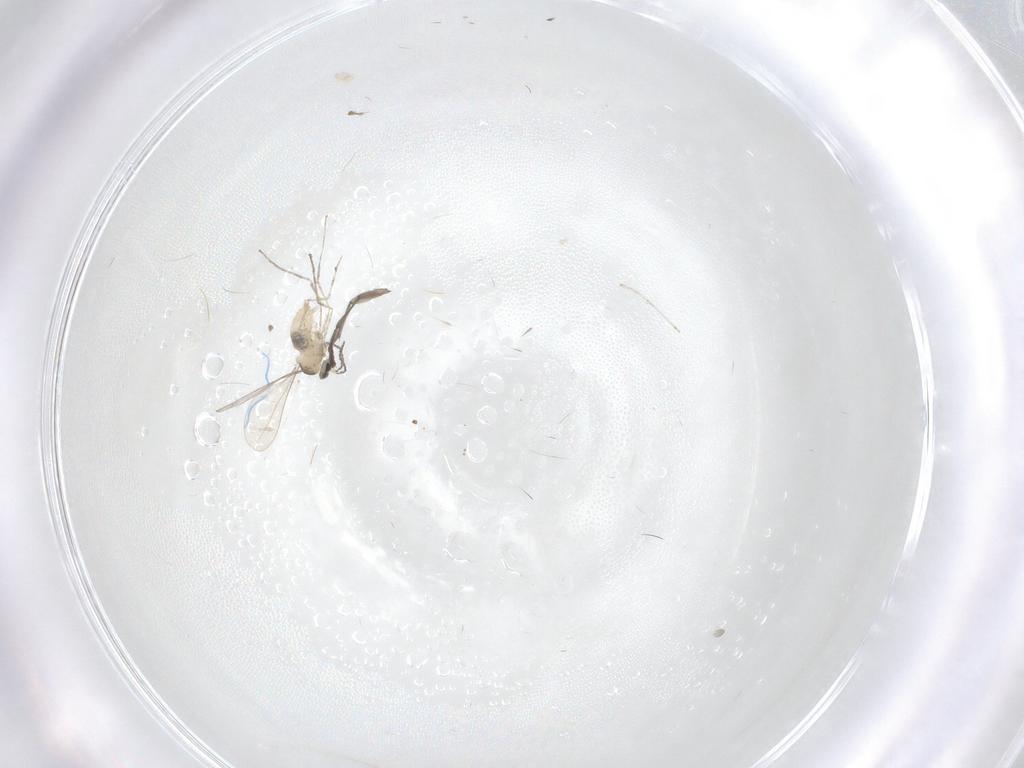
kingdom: Animalia
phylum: Arthropoda
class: Insecta
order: Diptera
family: Cecidomyiidae
